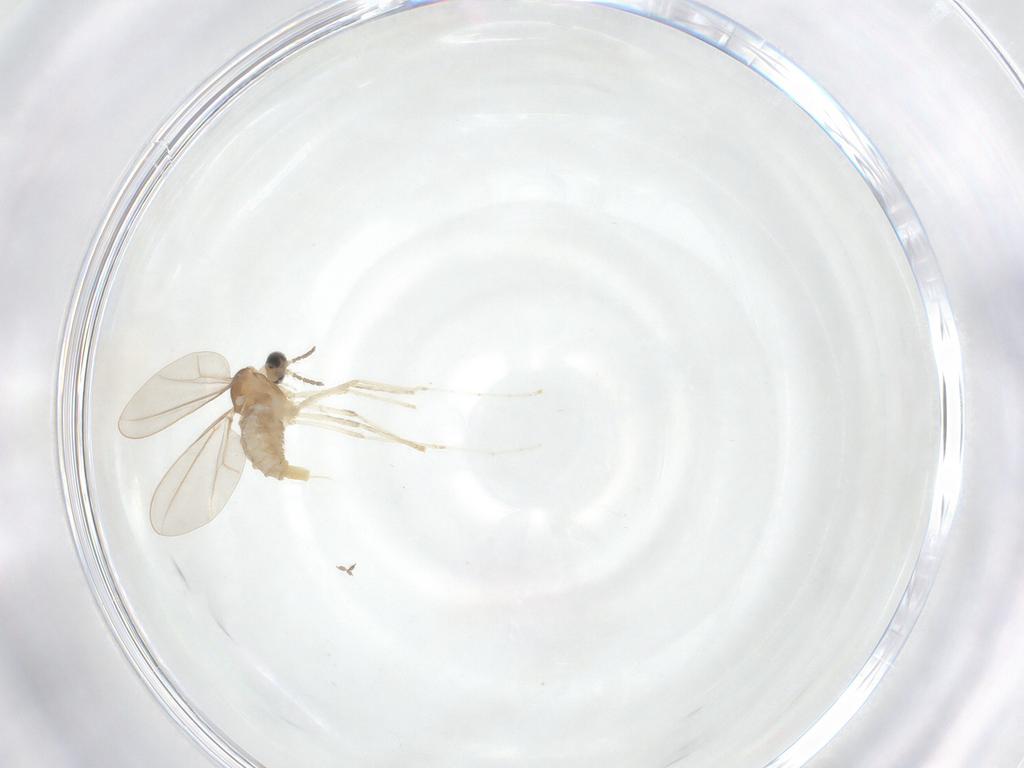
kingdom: Animalia
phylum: Arthropoda
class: Insecta
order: Diptera
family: Cecidomyiidae
